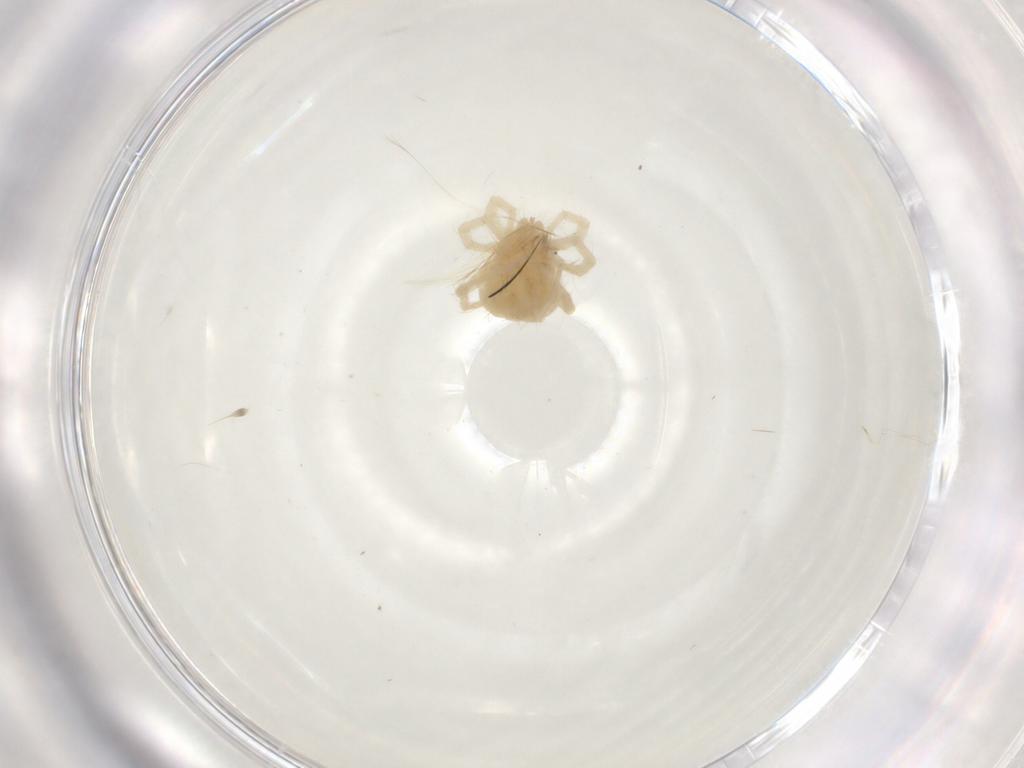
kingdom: Animalia
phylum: Arthropoda
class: Arachnida
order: Trombidiformes
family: Anystidae
